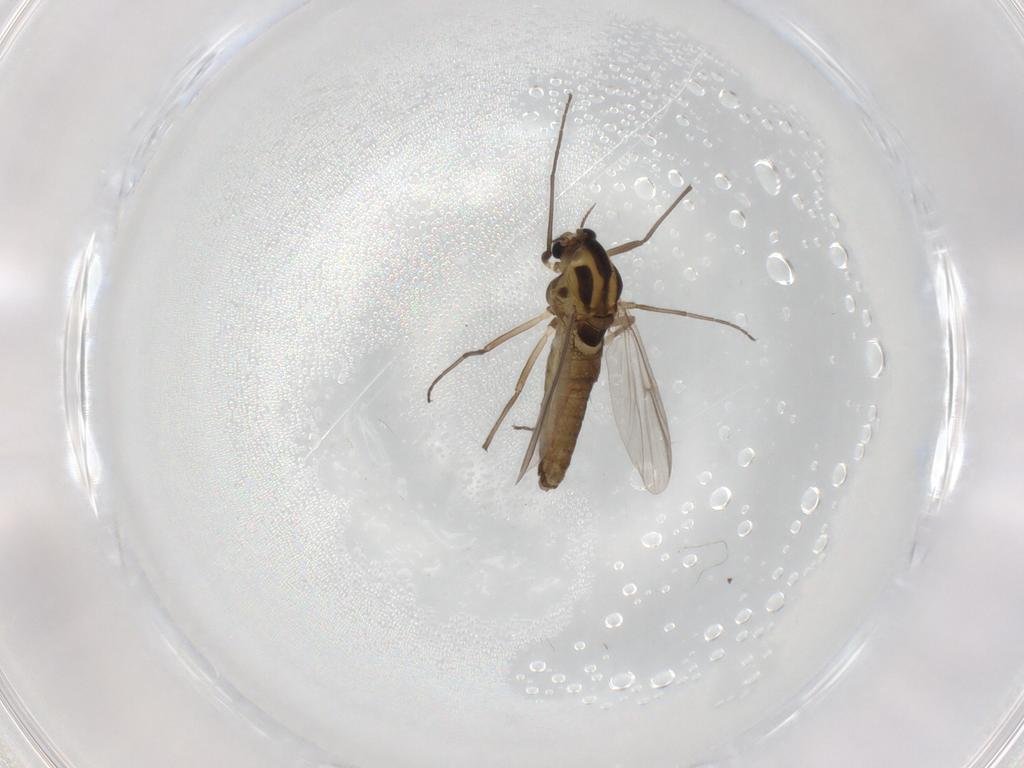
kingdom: Animalia
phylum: Arthropoda
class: Insecta
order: Diptera
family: Chironomidae
